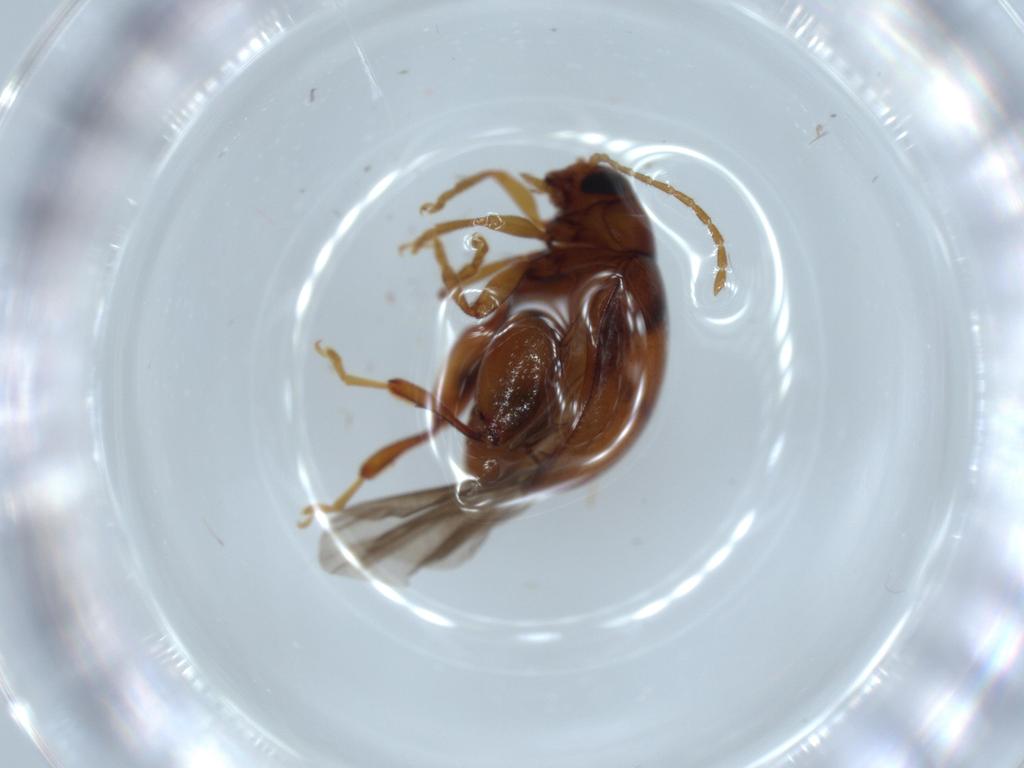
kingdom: Animalia
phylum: Arthropoda
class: Insecta
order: Coleoptera
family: Chrysomelidae
